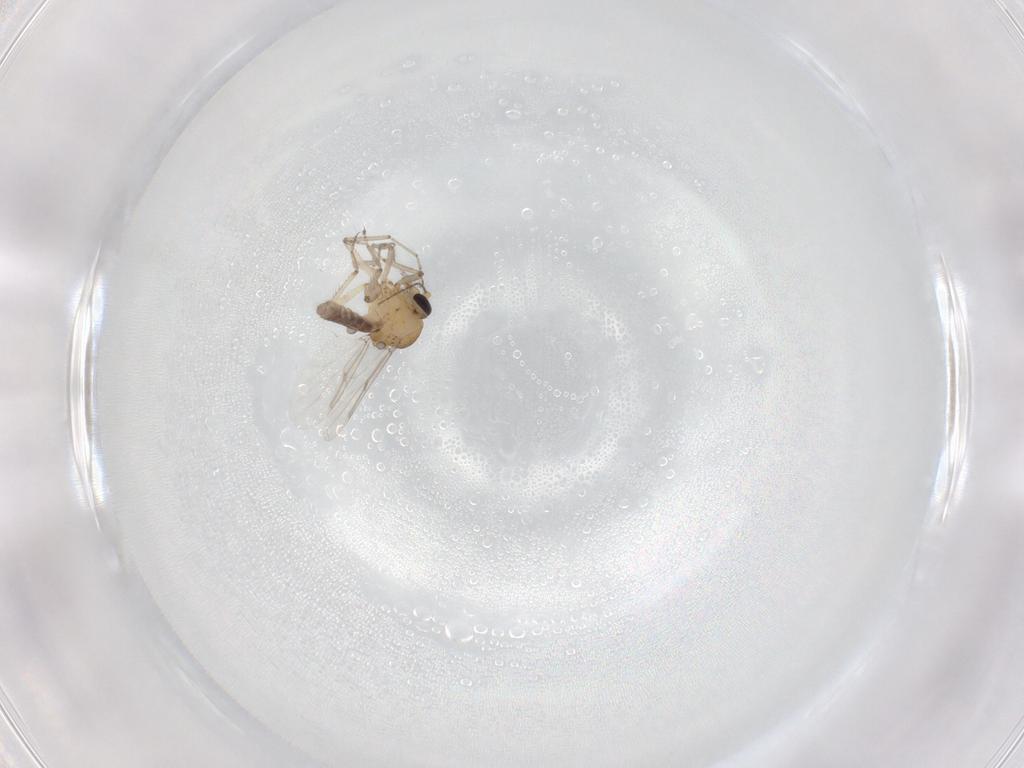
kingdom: Animalia
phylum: Arthropoda
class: Insecta
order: Diptera
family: Ceratopogonidae
